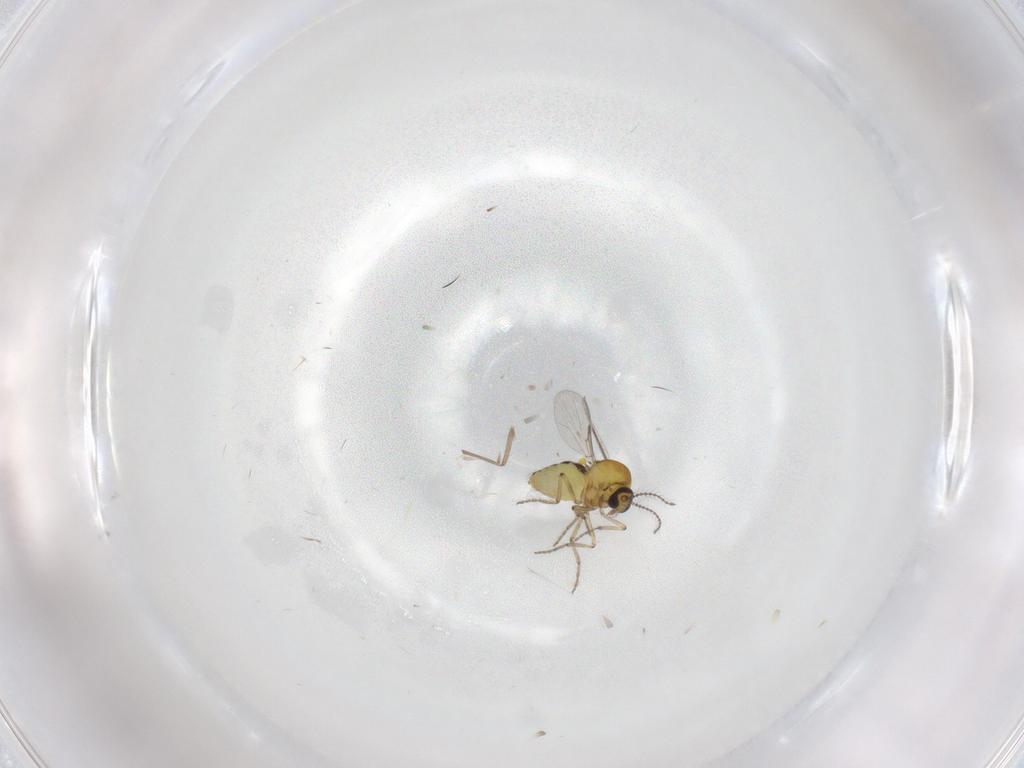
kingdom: Animalia
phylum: Arthropoda
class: Insecta
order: Diptera
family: Ceratopogonidae
